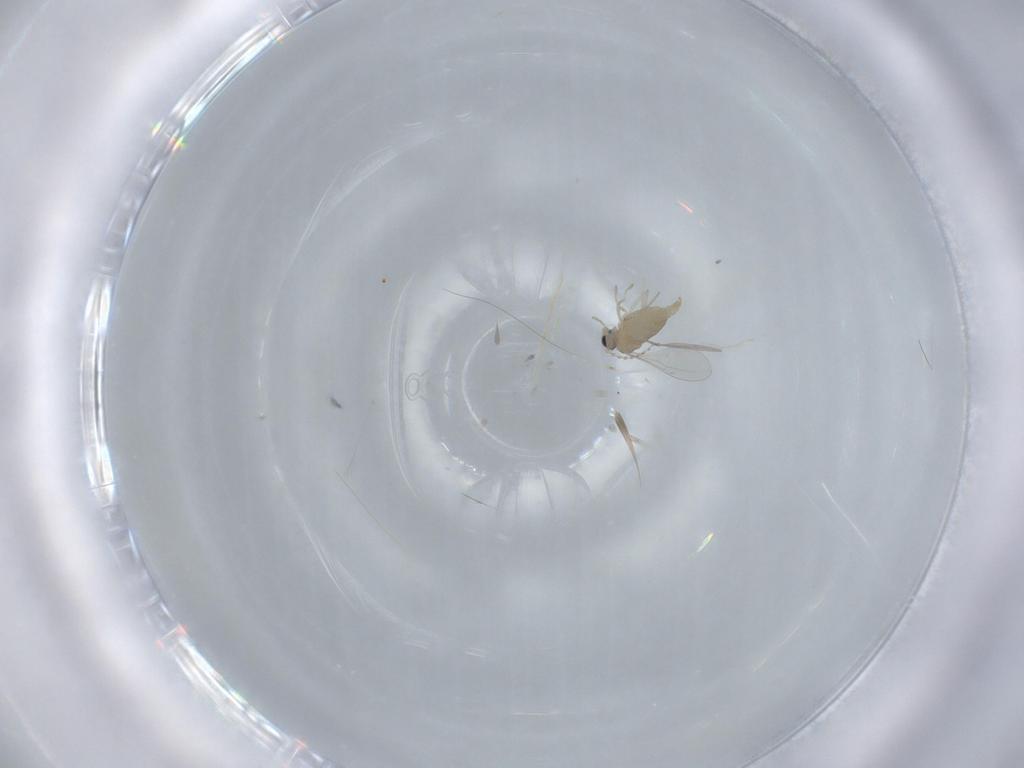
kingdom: Animalia
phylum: Arthropoda
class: Insecta
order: Diptera
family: Cecidomyiidae
